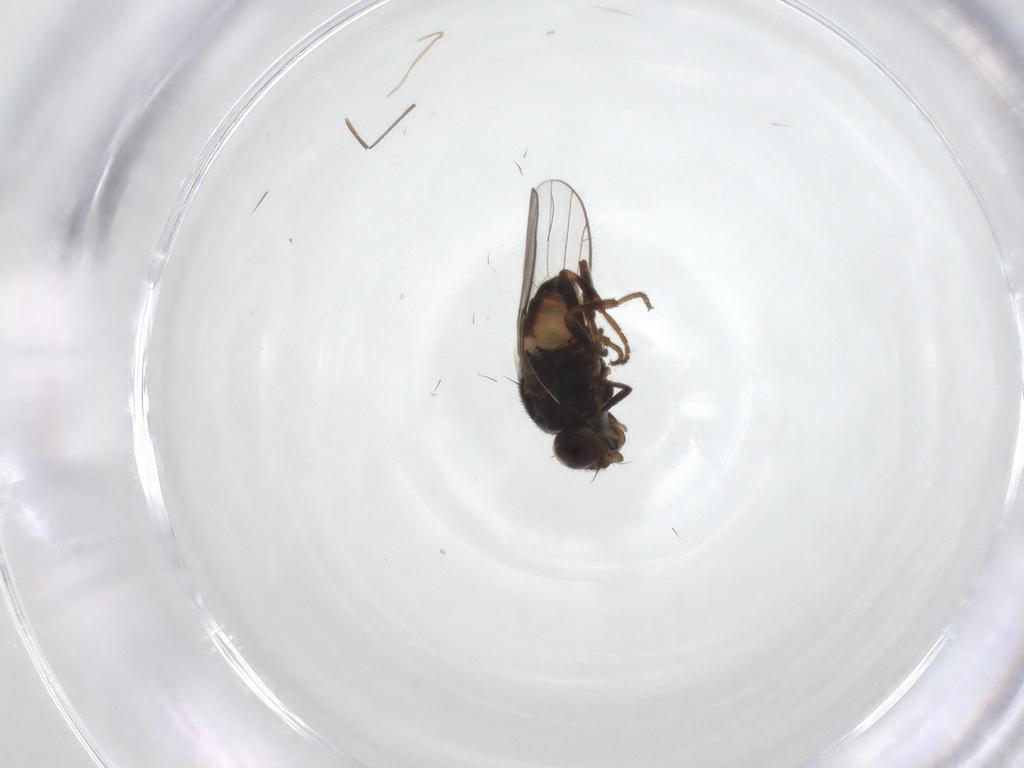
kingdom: Animalia
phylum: Arthropoda
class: Insecta
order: Diptera
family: Chloropidae
